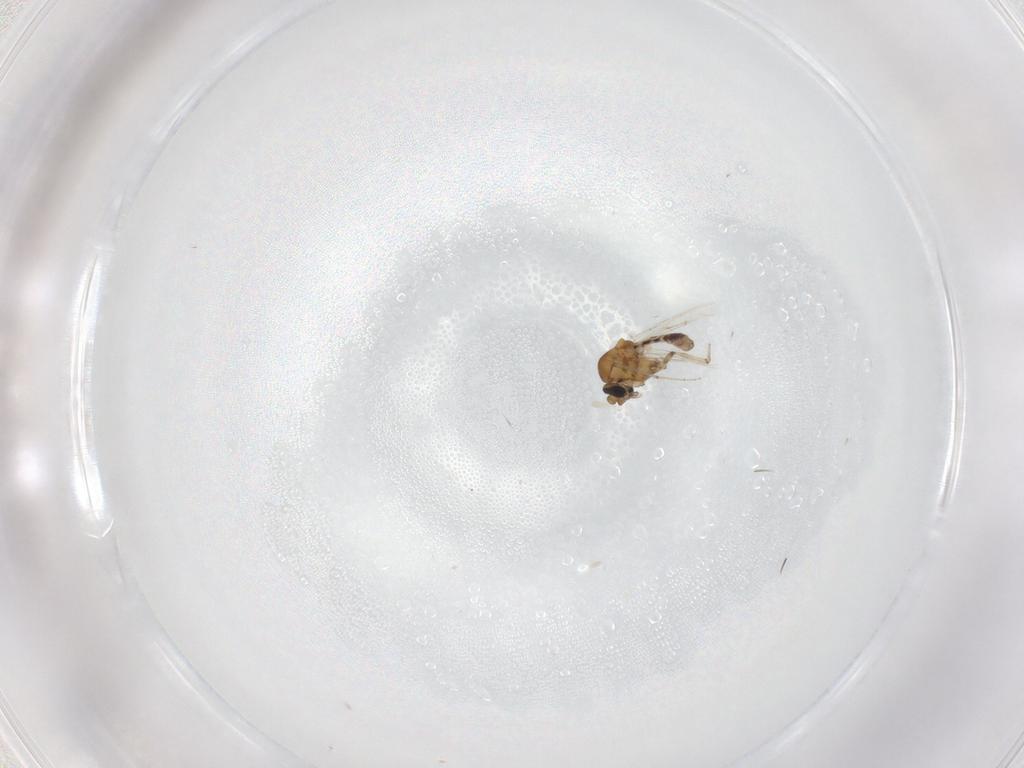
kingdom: Animalia
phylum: Arthropoda
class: Insecta
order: Diptera
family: Ceratopogonidae
